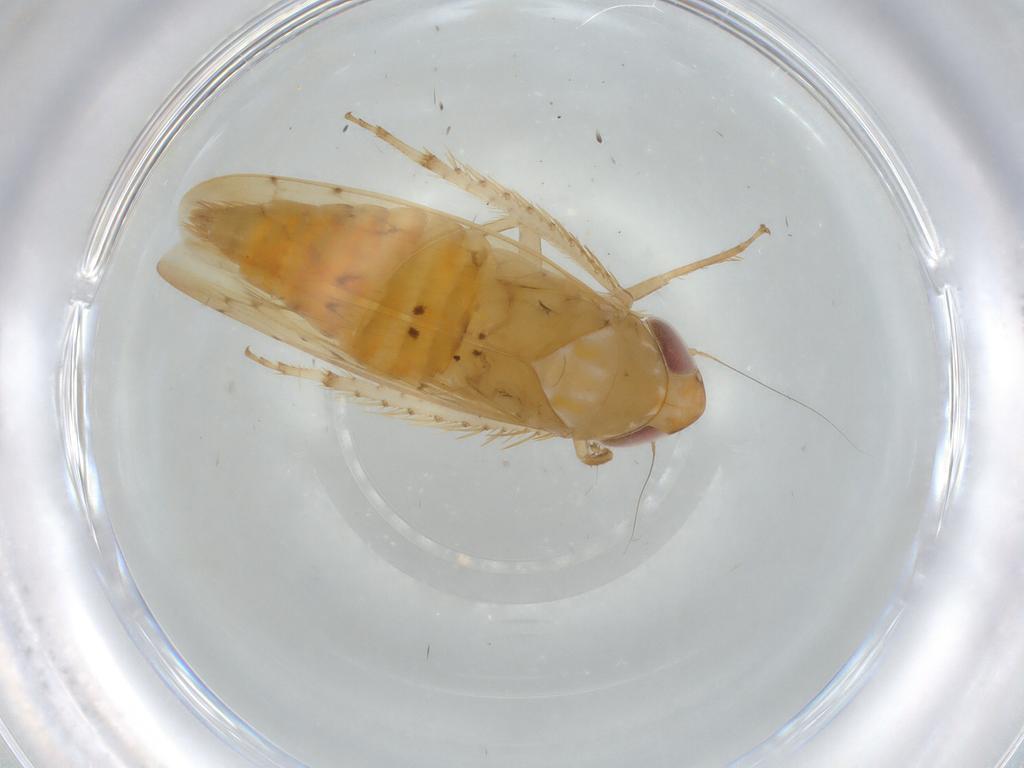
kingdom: Animalia
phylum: Arthropoda
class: Insecta
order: Hemiptera
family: Cicadellidae
